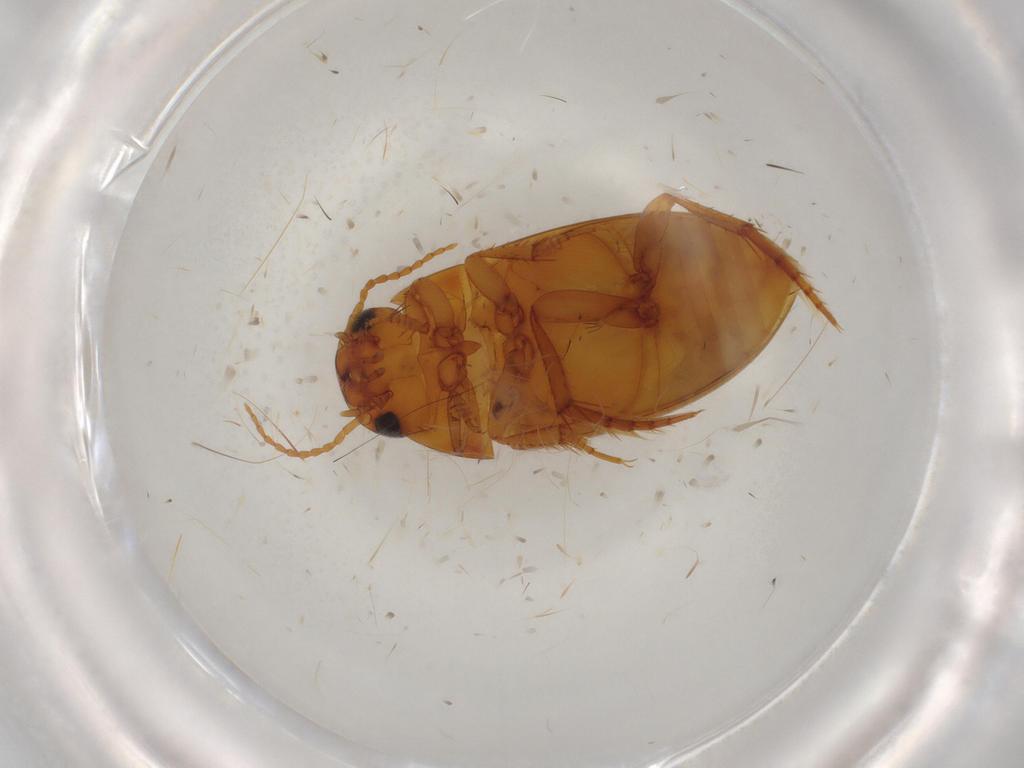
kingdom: Animalia
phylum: Arthropoda
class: Insecta
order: Coleoptera
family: Dytiscidae
